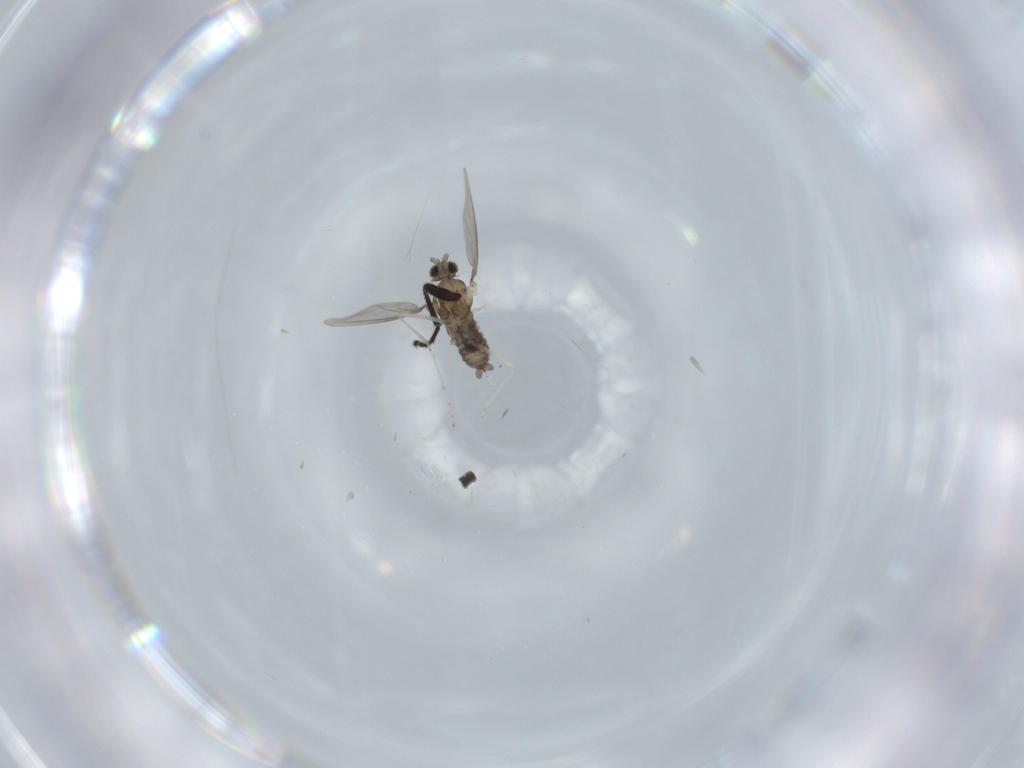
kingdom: Animalia
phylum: Arthropoda
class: Insecta
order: Diptera
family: Cecidomyiidae
